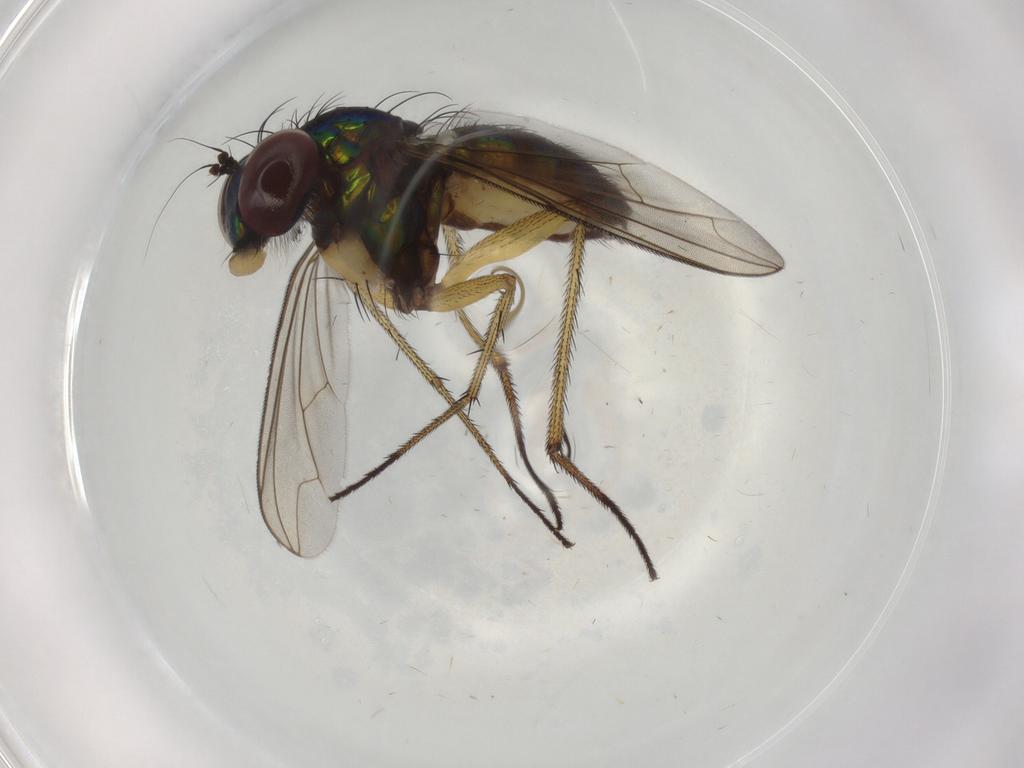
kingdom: Animalia
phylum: Arthropoda
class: Insecta
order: Diptera
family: Dolichopodidae
